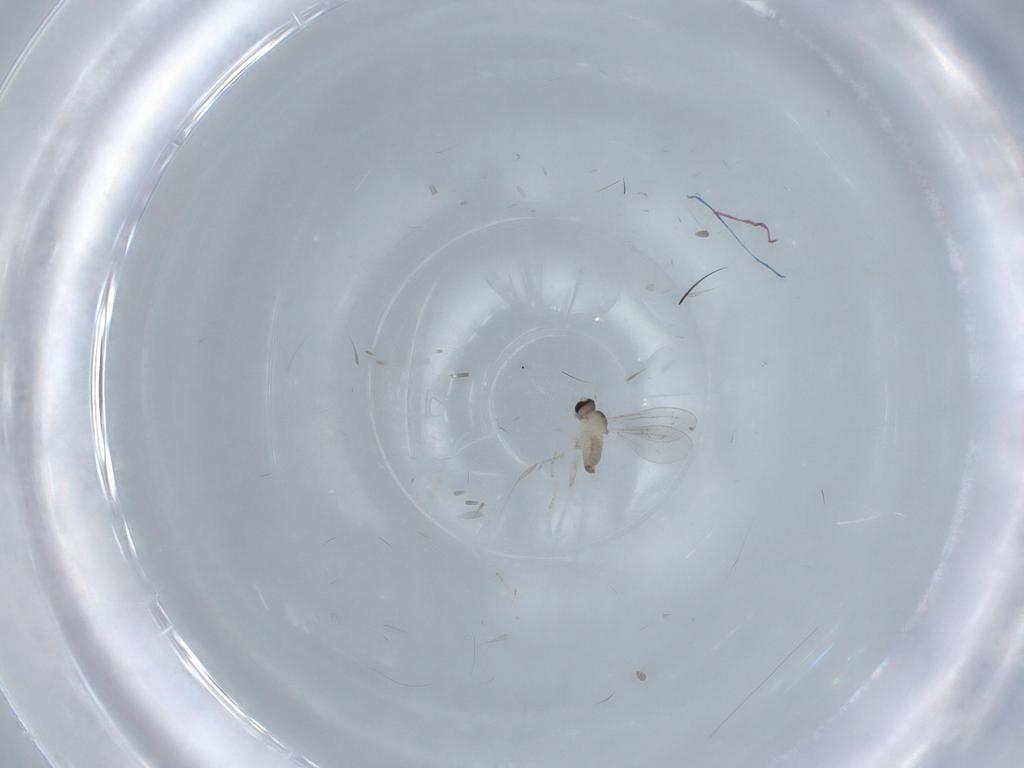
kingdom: Animalia
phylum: Arthropoda
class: Insecta
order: Diptera
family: Cecidomyiidae
